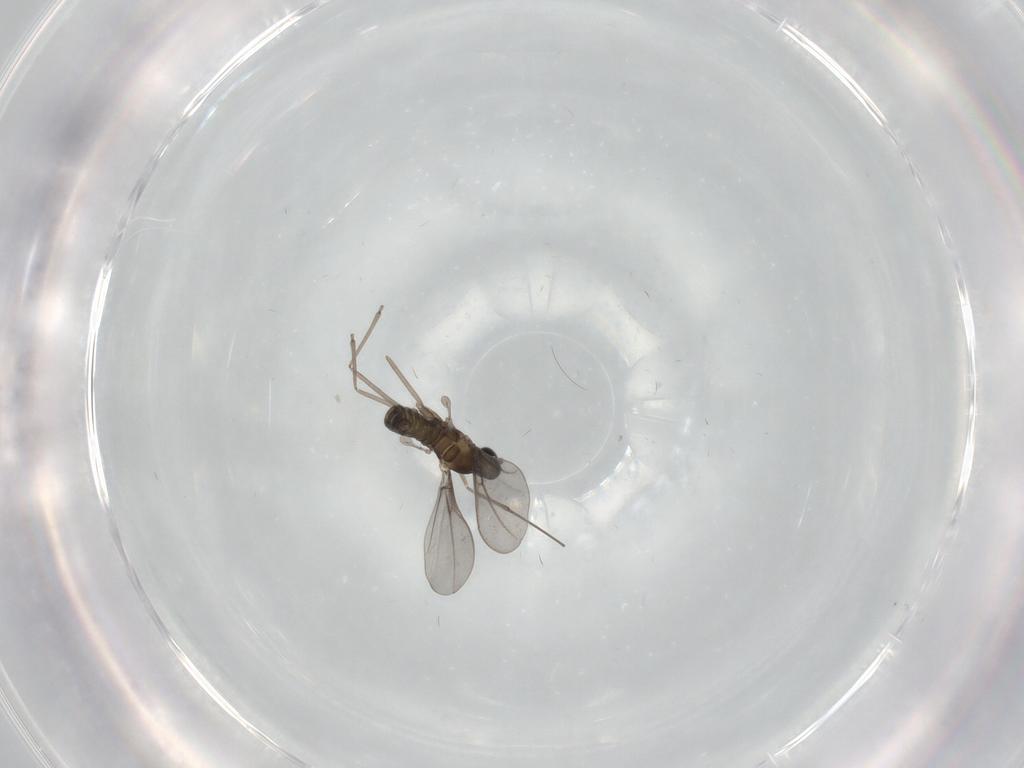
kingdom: Animalia
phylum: Arthropoda
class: Insecta
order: Diptera
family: Cecidomyiidae
